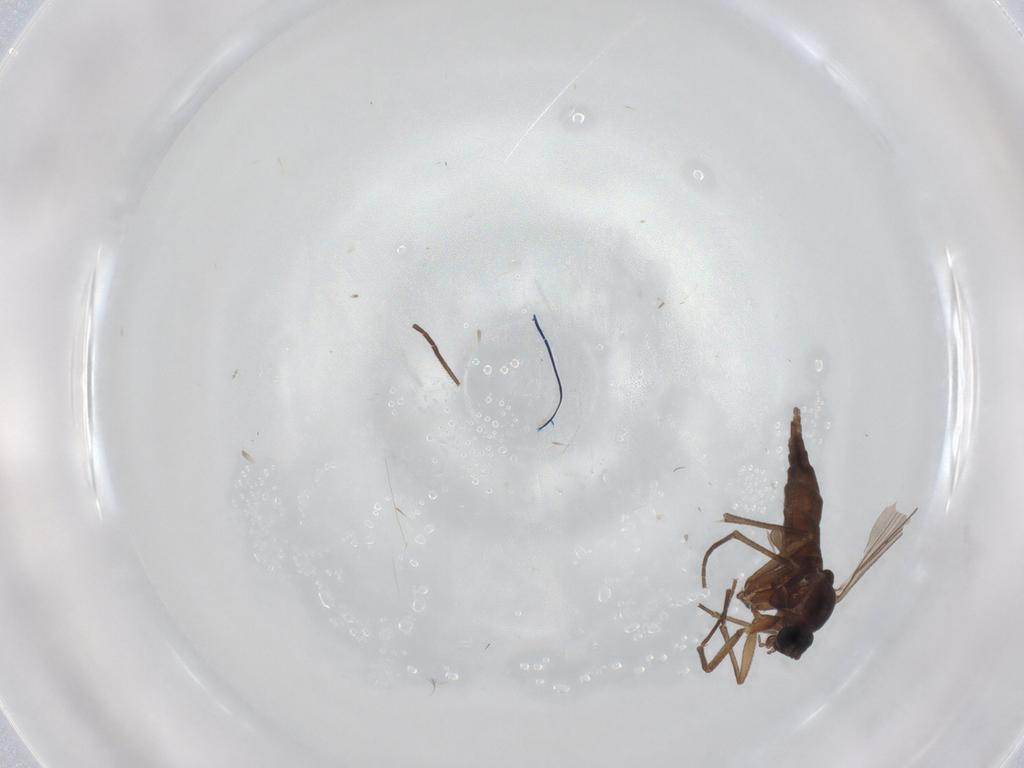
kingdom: Animalia
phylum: Arthropoda
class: Insecta
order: Diptera
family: Sciaridae
